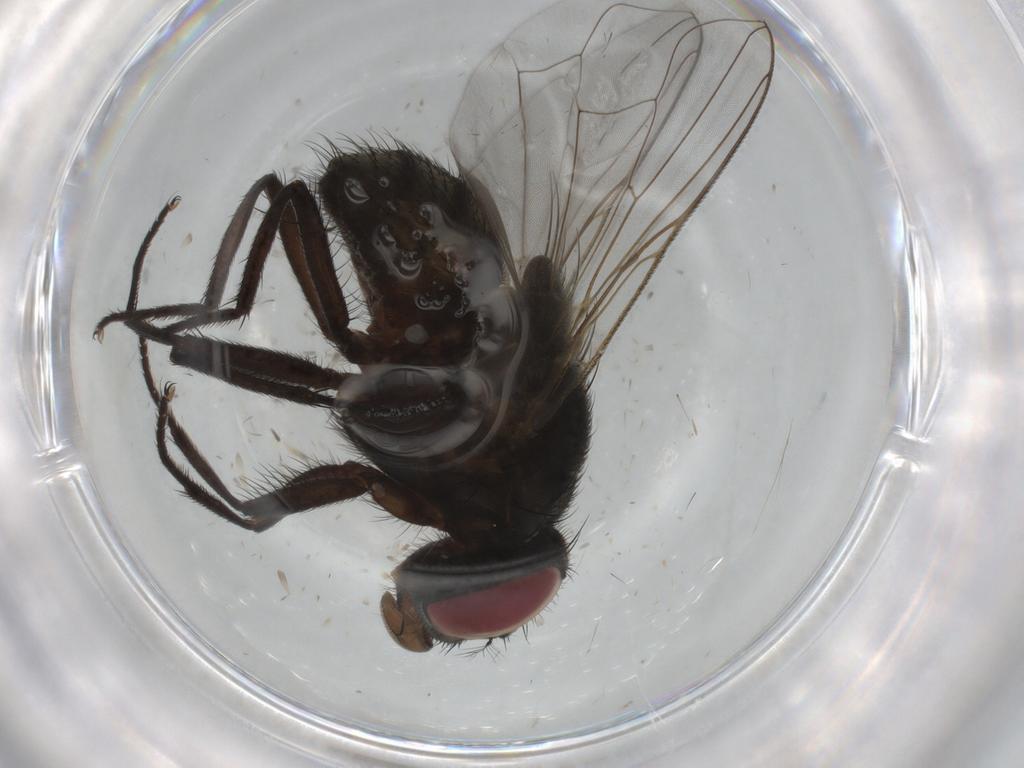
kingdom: Animalia
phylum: Arthropoda
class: Insecta
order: Diptera
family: Muscidae
